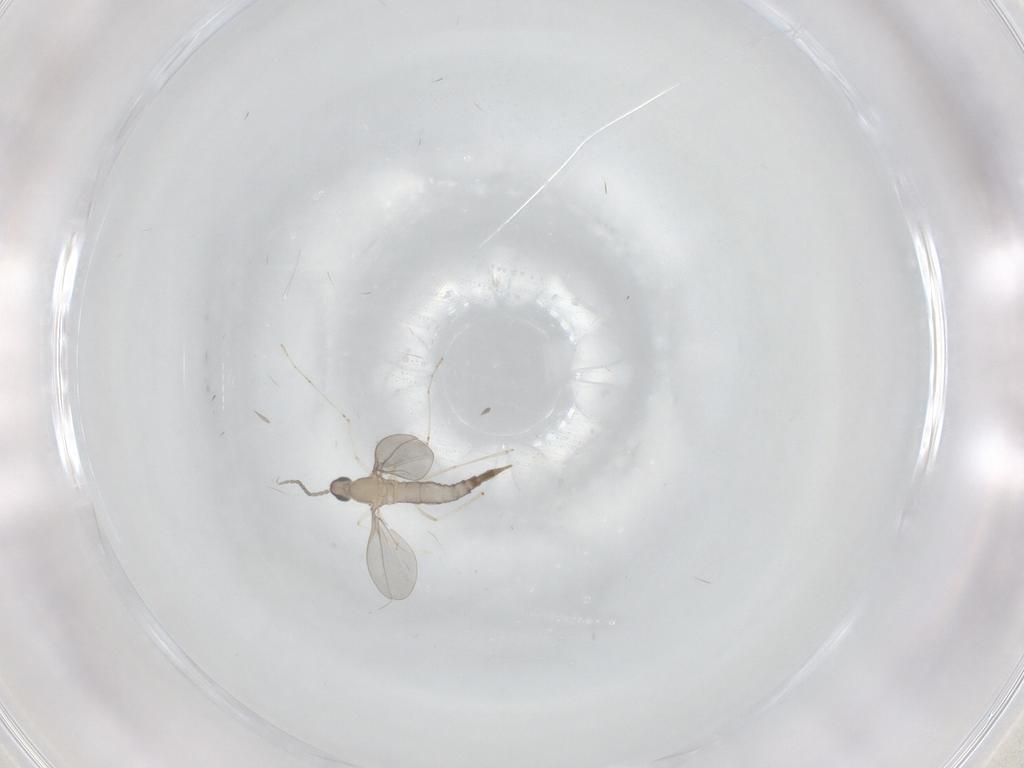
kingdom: Animalia
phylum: Arthropoda
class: Insecta
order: Diptera
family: Cecidomyiidae
